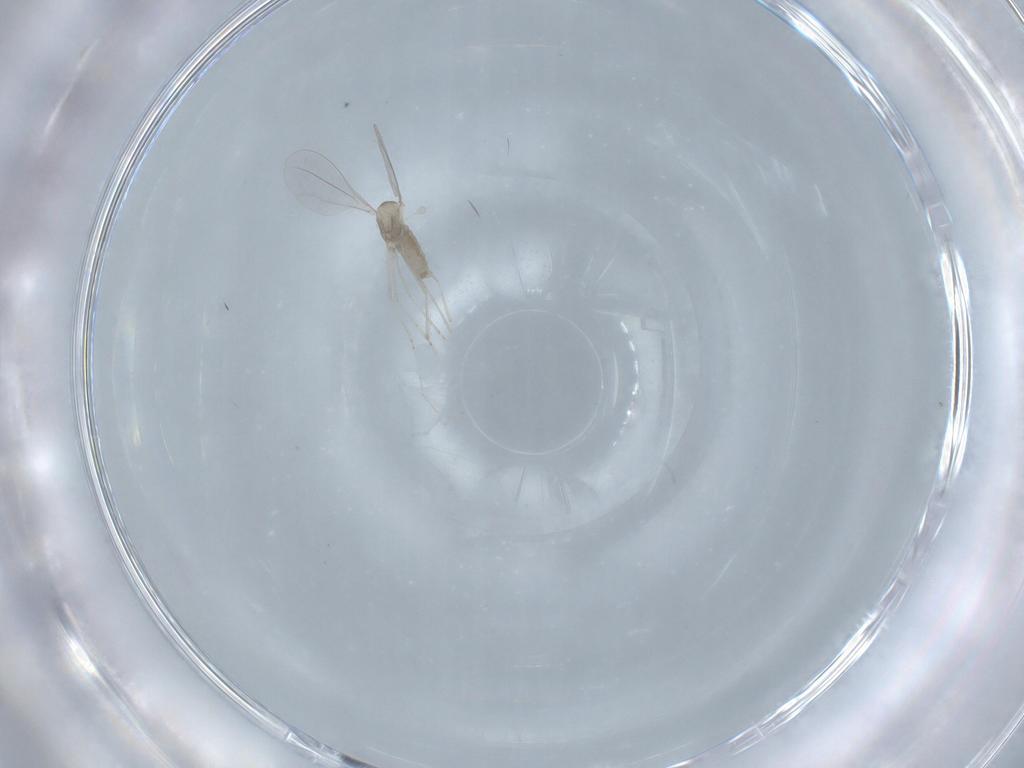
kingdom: Animalia
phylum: Arthropoda
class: Insecta
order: Diptera
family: Cecidomyiidae
